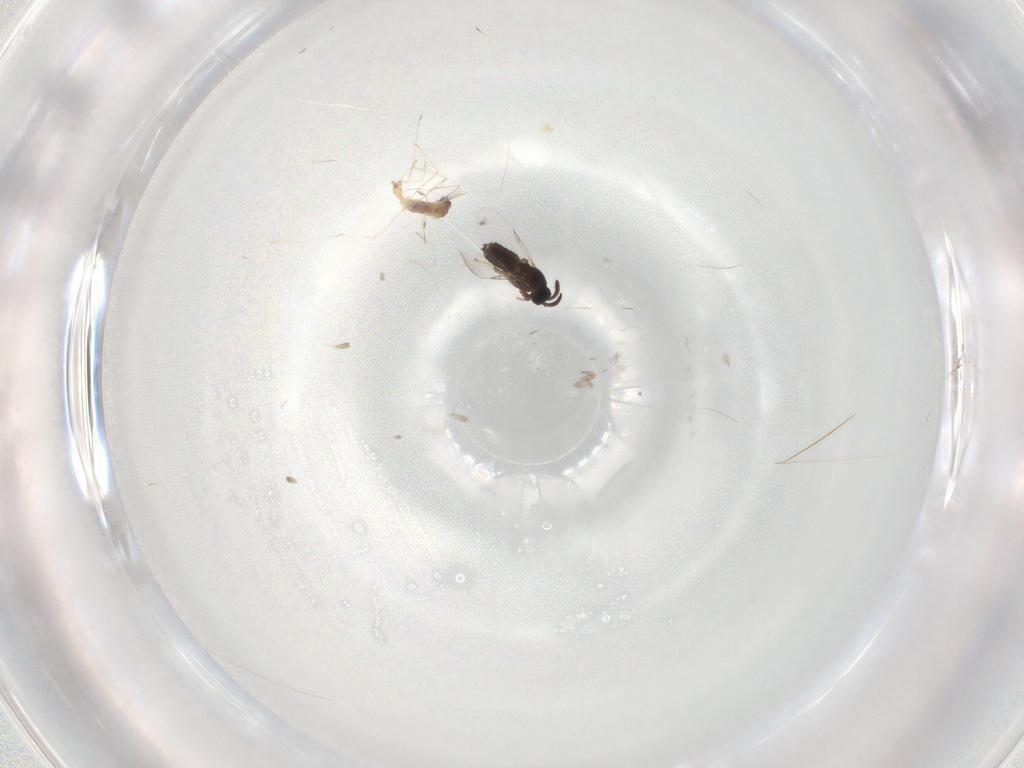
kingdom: Animalia
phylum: Arthropoda
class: Insecta
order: Diptera
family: Scatopsidae
